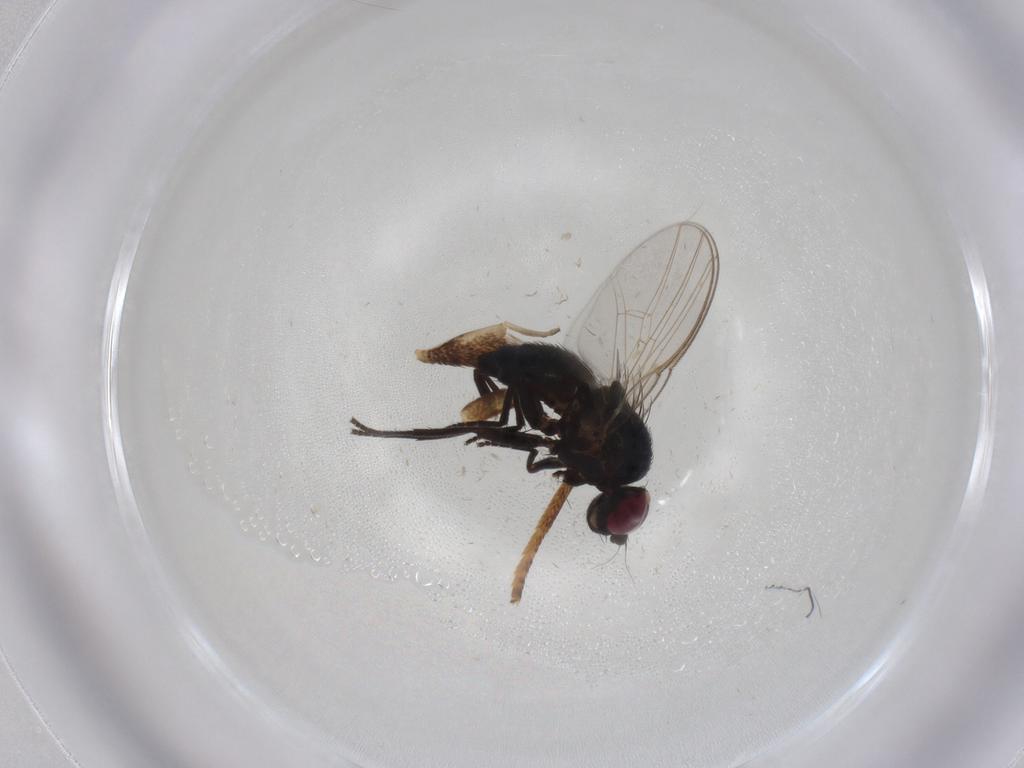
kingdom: Animalia
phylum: Arthropoda
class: Insecta
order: Diptera
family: Agromyzidae
